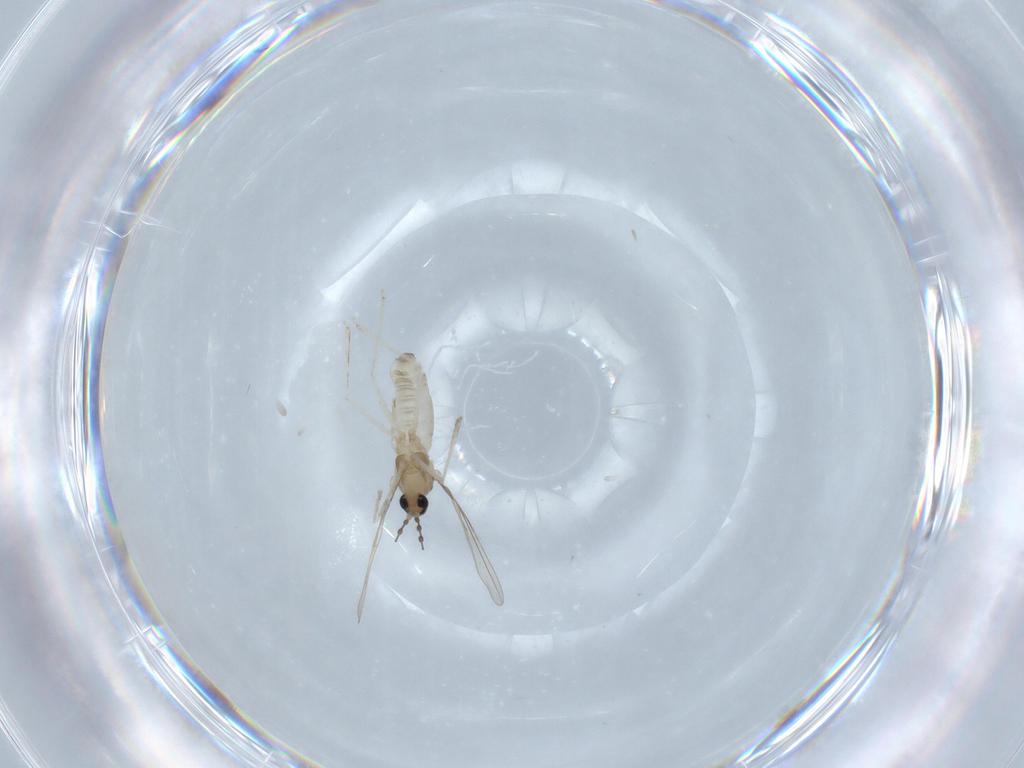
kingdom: Animalia
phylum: Arthropoda
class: Insecta
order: Diptera
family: Cecidomyiidae
